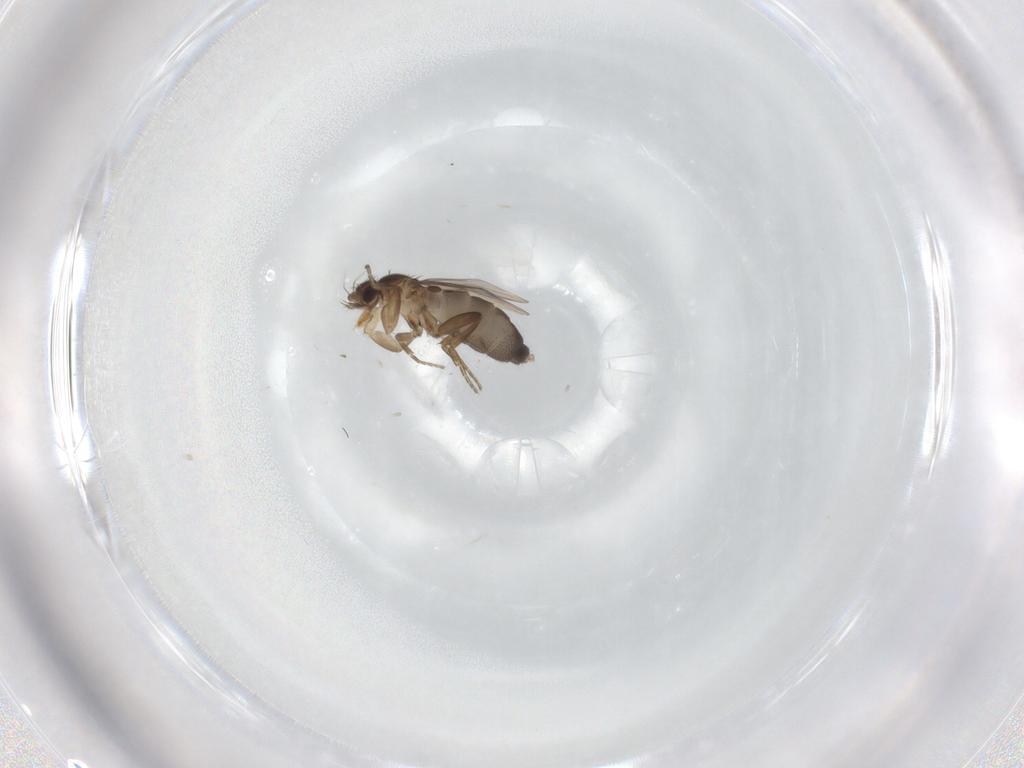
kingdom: Animalia
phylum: Arthropoda
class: Insecta
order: Diptera
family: Phoridae
